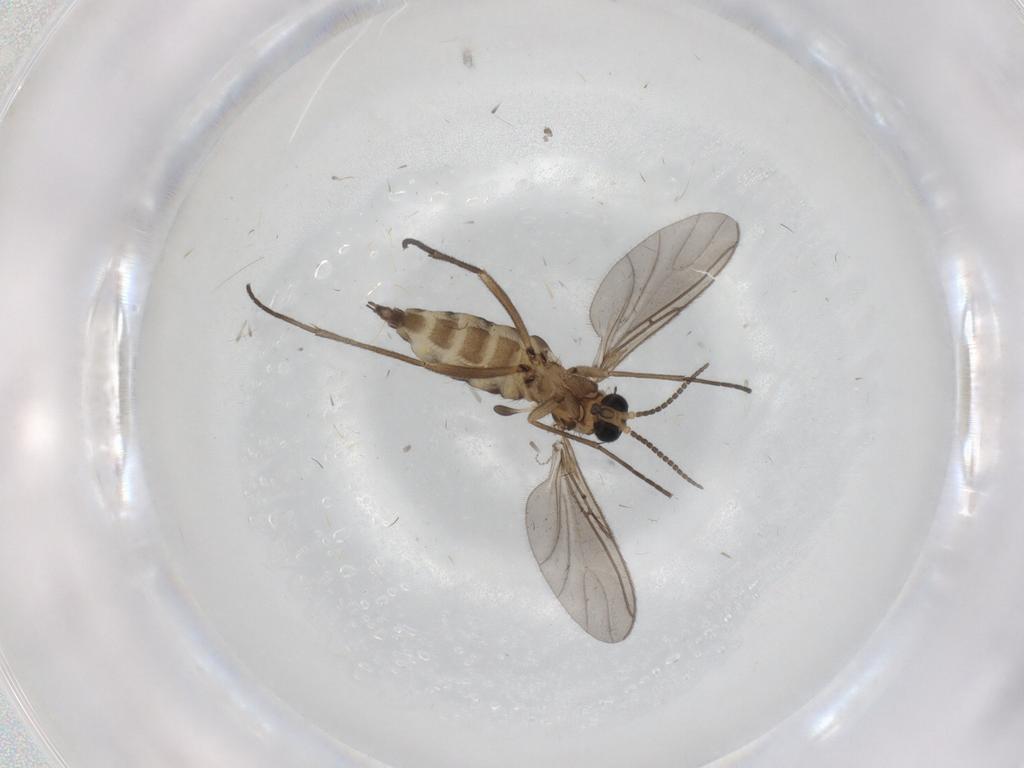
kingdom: Animalia
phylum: Arthropoda
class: Insecta
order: Diptera
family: Sciaridae
